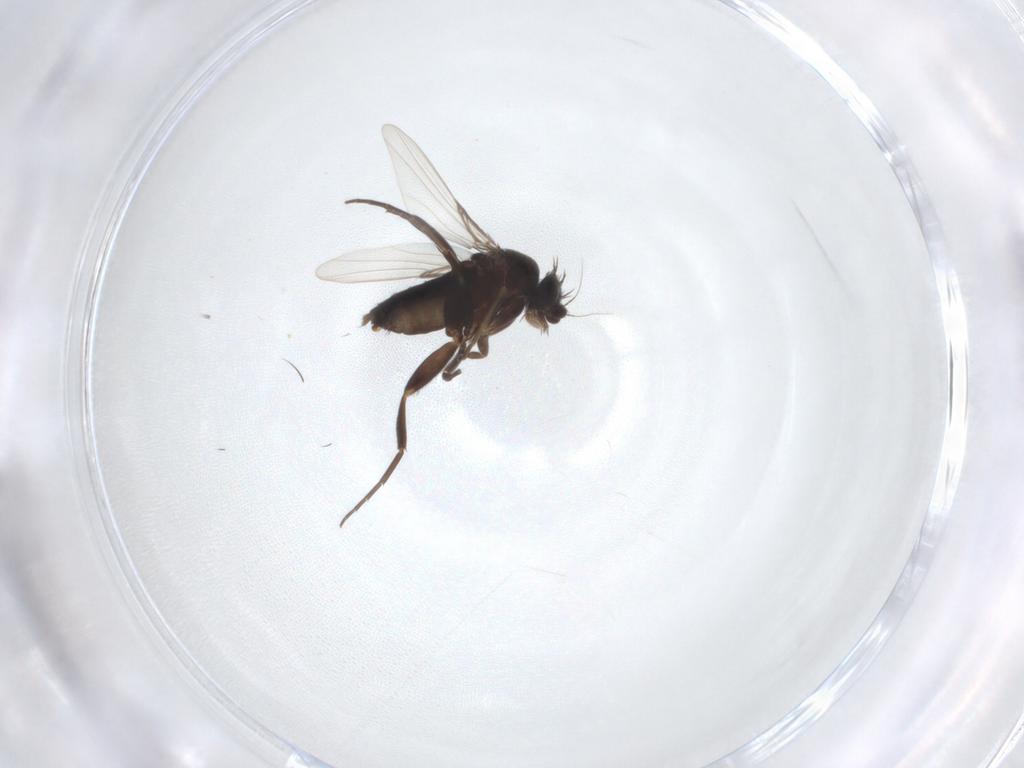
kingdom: Animalia
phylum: Arthropoda
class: Insecta
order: Diptera
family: Phoridae
